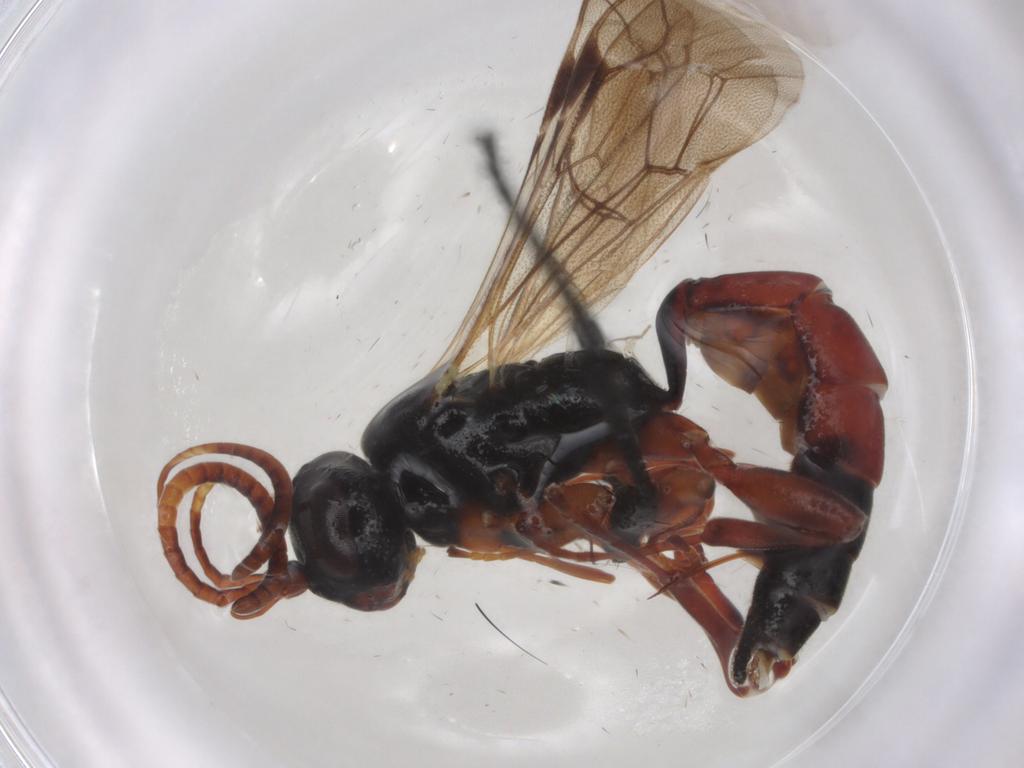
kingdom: Animalia
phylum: Arthropoda
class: Insecta
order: Hymenoptera
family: Ichneumonidae
